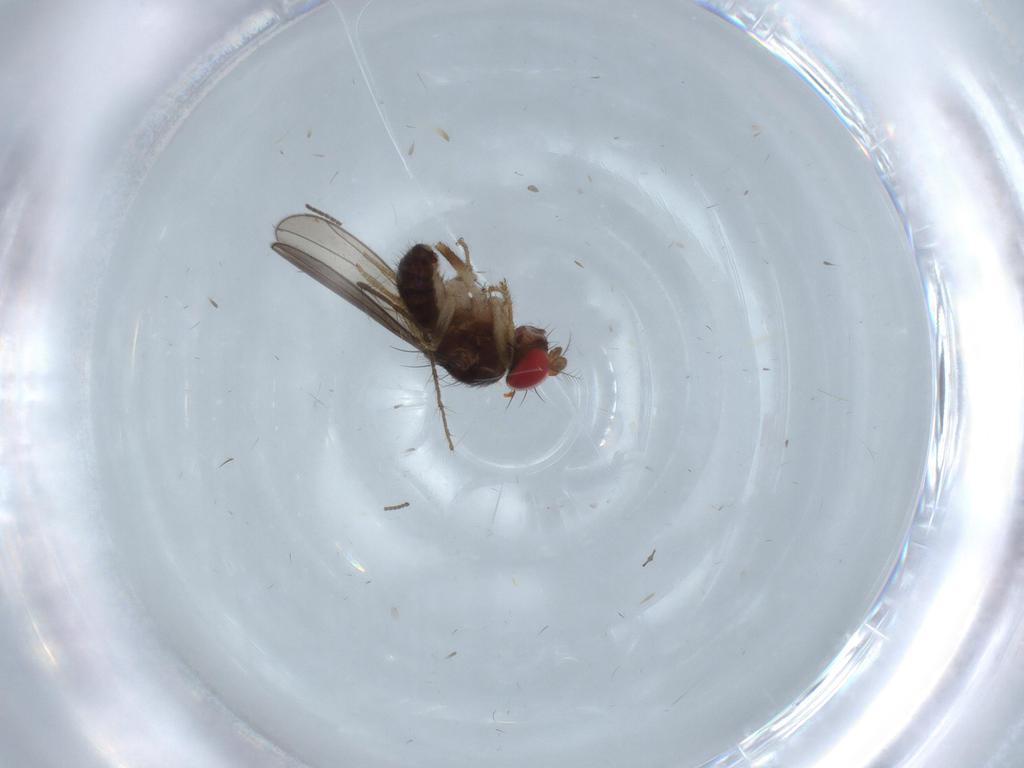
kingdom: Animalia
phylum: Arthropoda
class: Insecta
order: Diptera
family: Drosophilidae
